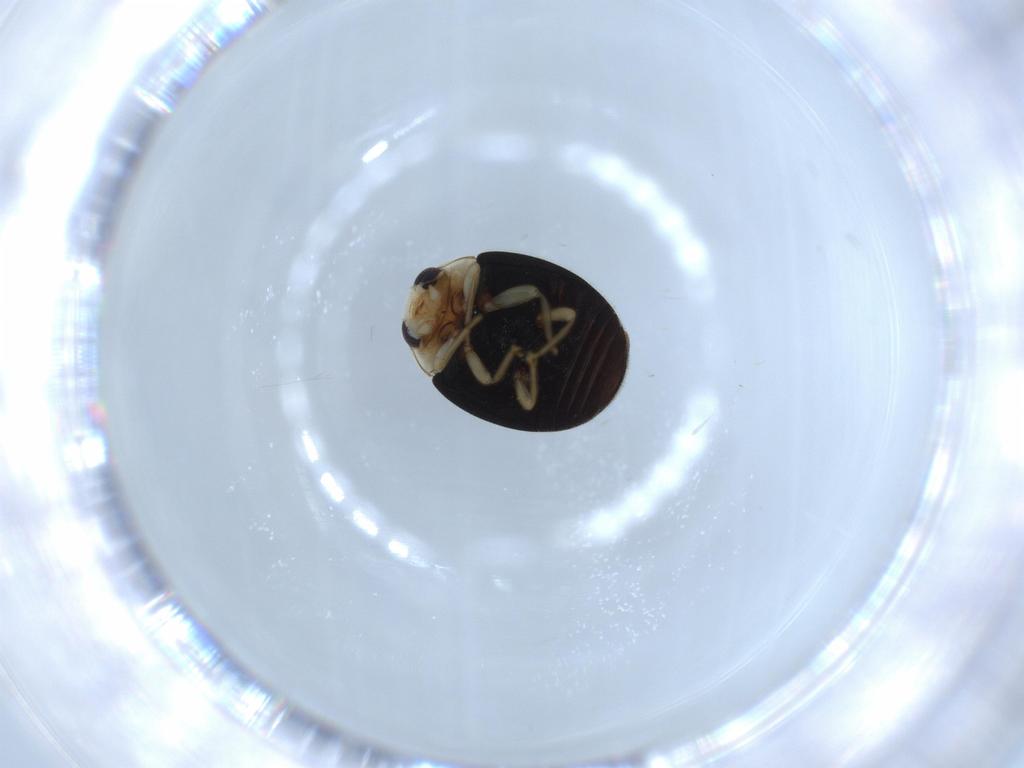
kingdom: Animalia
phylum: Arthropoda
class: Insecta
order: Coleoptera
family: Coccinellidae
